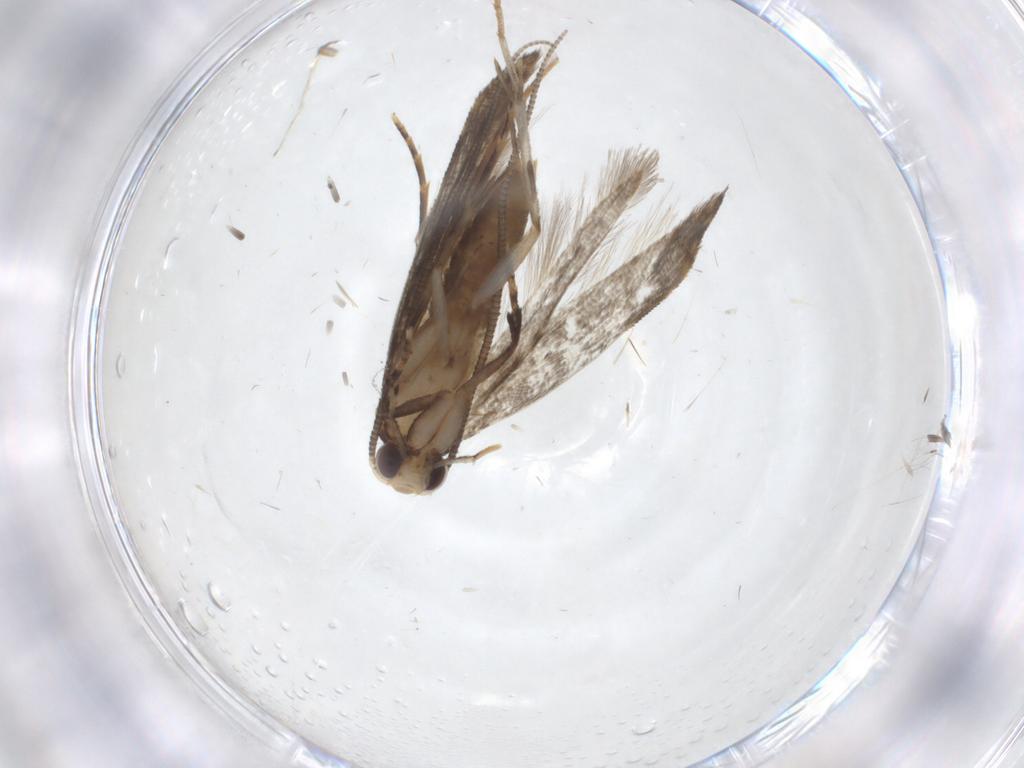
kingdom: Animalia
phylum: Arthropoda
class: Insecta
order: Lepidoptera
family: Tineidae
